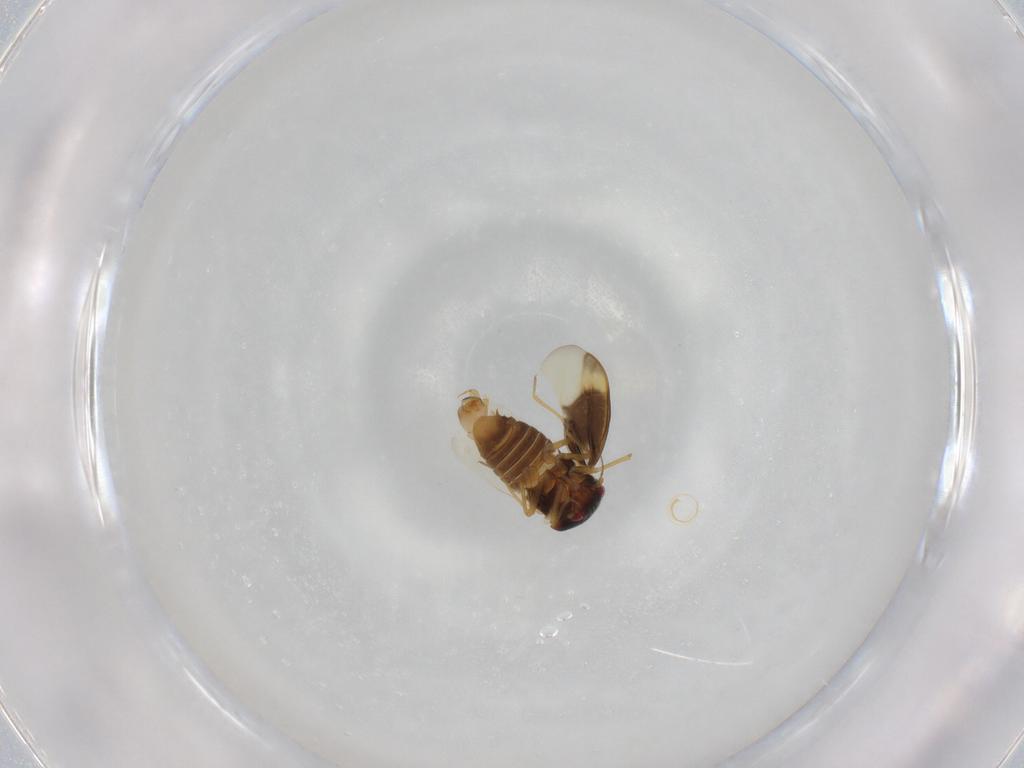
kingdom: Animalia
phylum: Arthropoda
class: Insecta
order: Hemiptera
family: Schizopteridae
